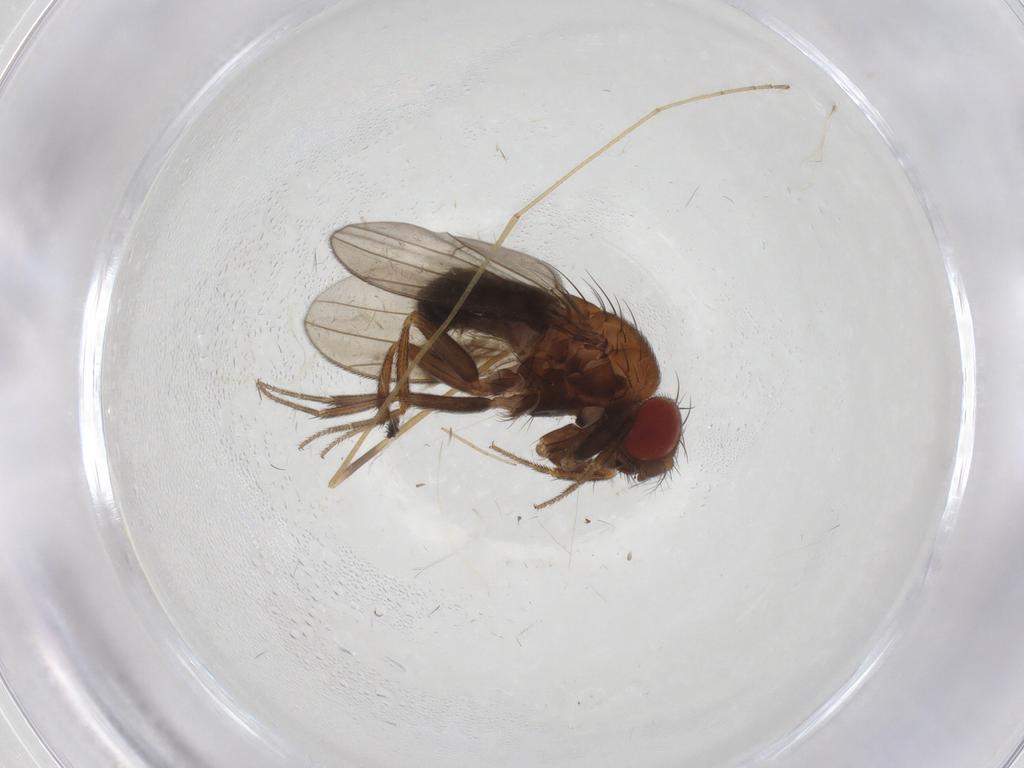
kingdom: Animalia
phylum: Arthropoda
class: Insecta
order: Diptera
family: Drosophilidae
